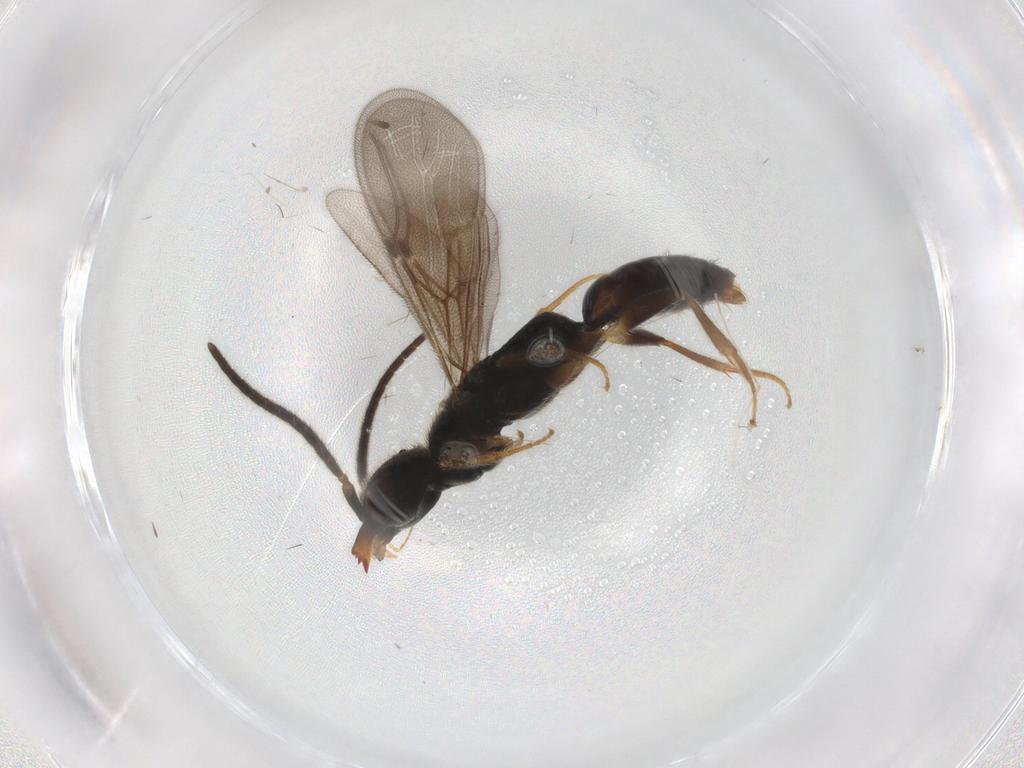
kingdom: Animalia
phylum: Arthropoda
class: Insecta
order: Hymenoptera
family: Bethylidae
